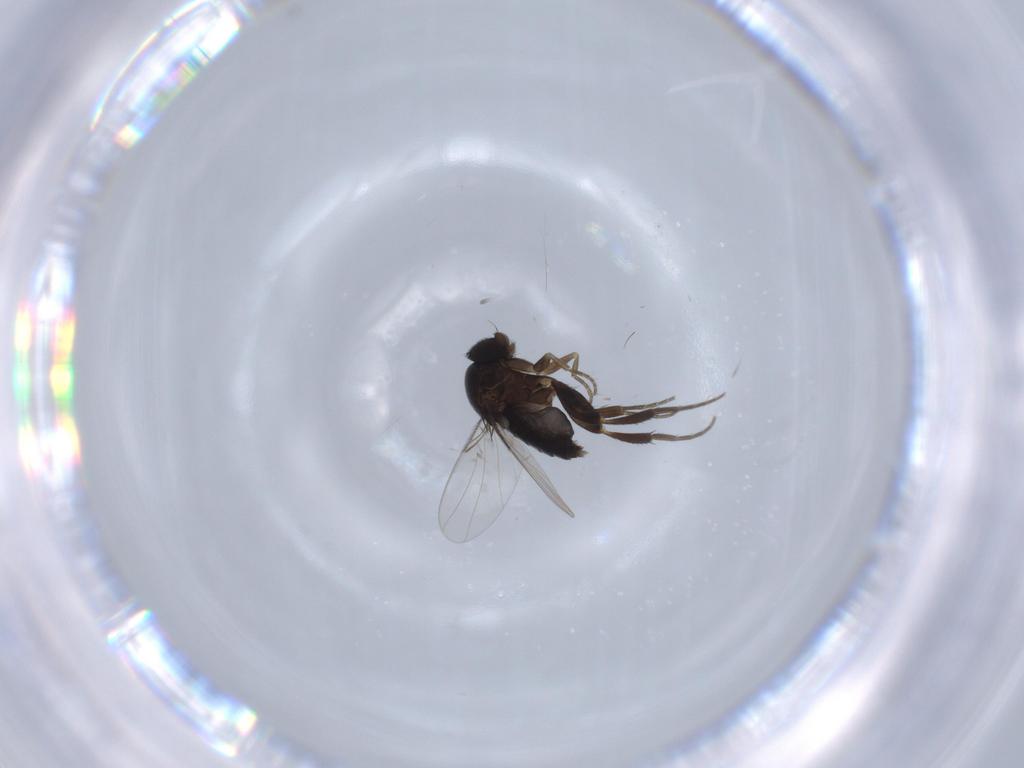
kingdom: Animalia
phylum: Arthropoda
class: Insecta
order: Diptera
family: Phoridae
